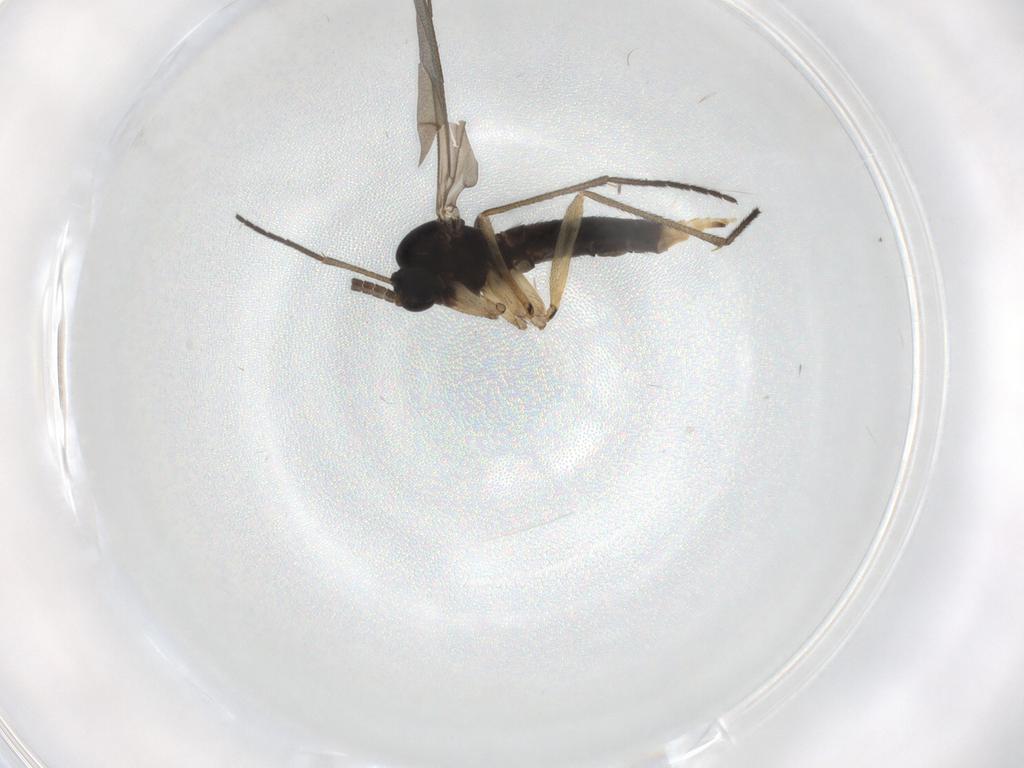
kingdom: Animalia
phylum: Arthropoda
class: Insecta
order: Diptera
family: Sciaridae
